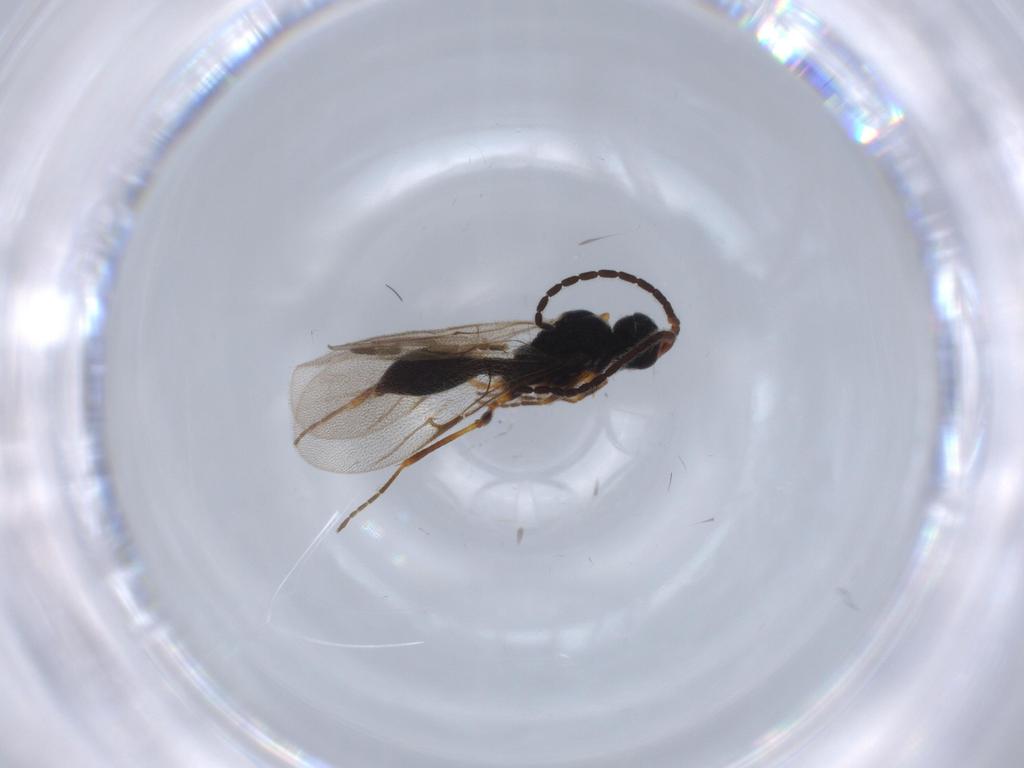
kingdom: Animalia
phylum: Arthropoda
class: Insecta
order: Hymenoptera
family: Ichneumonidae
